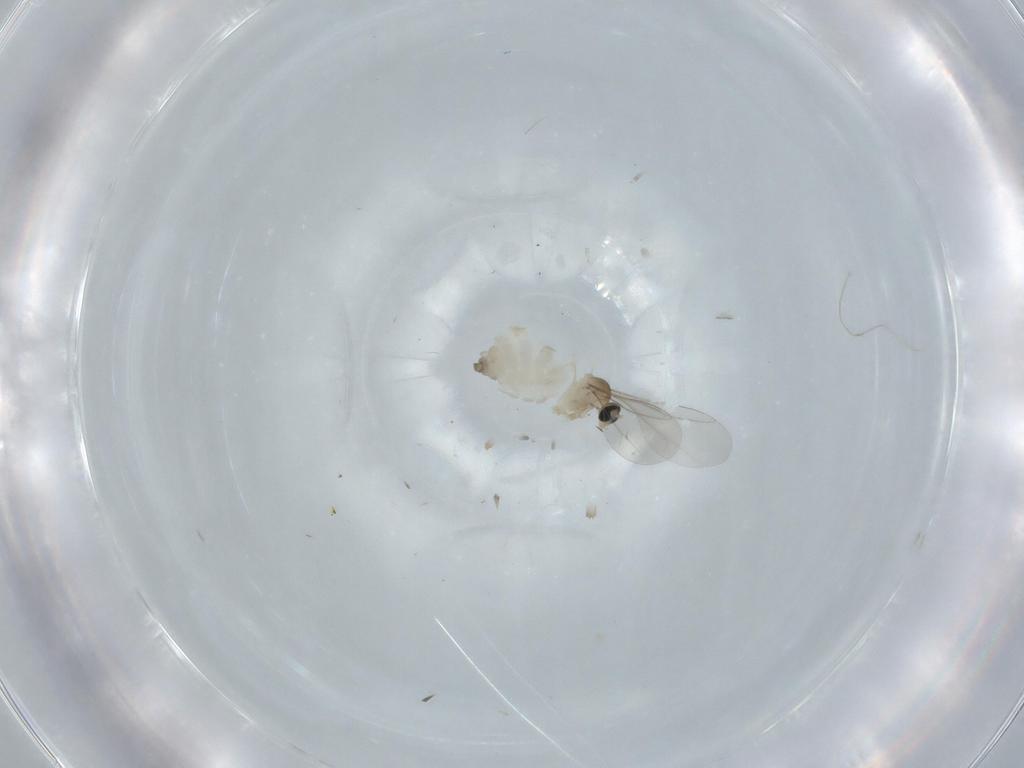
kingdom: Animalia
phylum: Arthropoda
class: Insecta
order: Diptera
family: Cecidomyiidae
